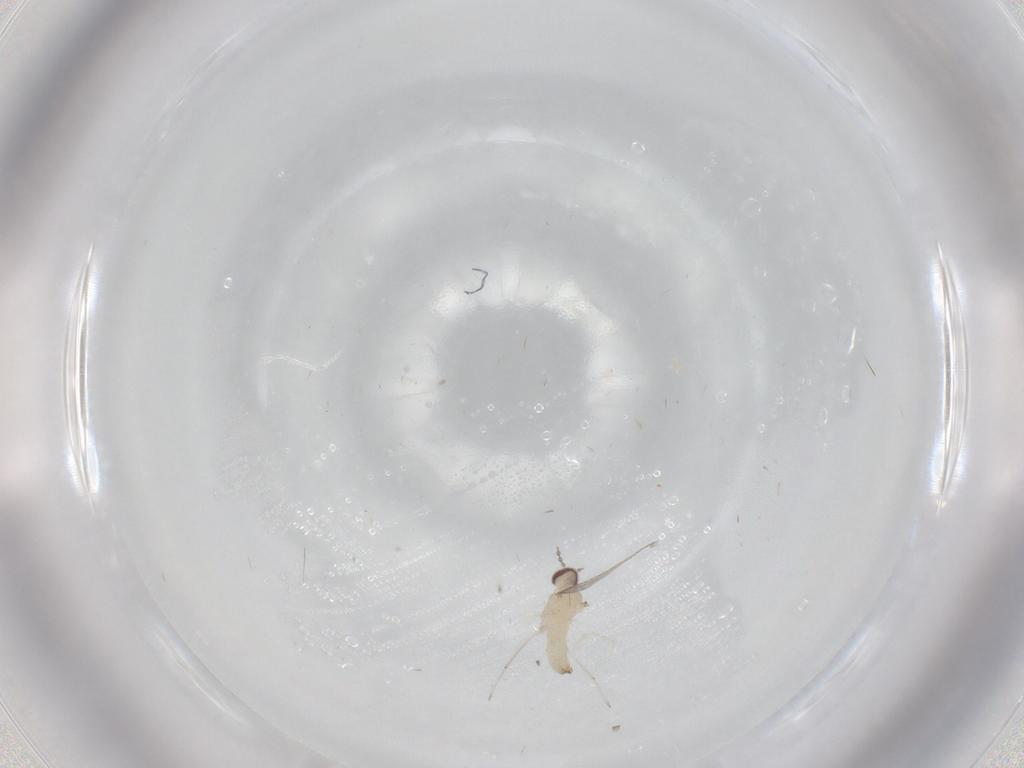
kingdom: Animalia
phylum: Arthropoda
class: Insecta
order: Diptera
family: Cecidomyiidae
